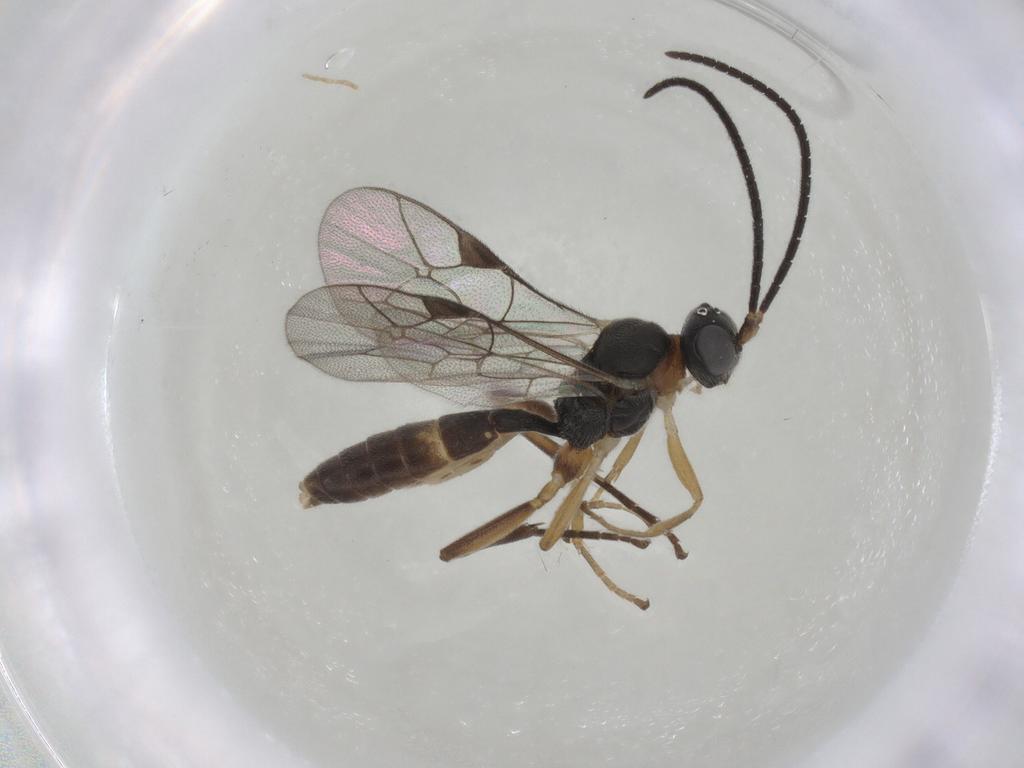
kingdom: Animalia
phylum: Arthropoda
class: Insecta
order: Hymenoptera
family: Ichneumonidae
